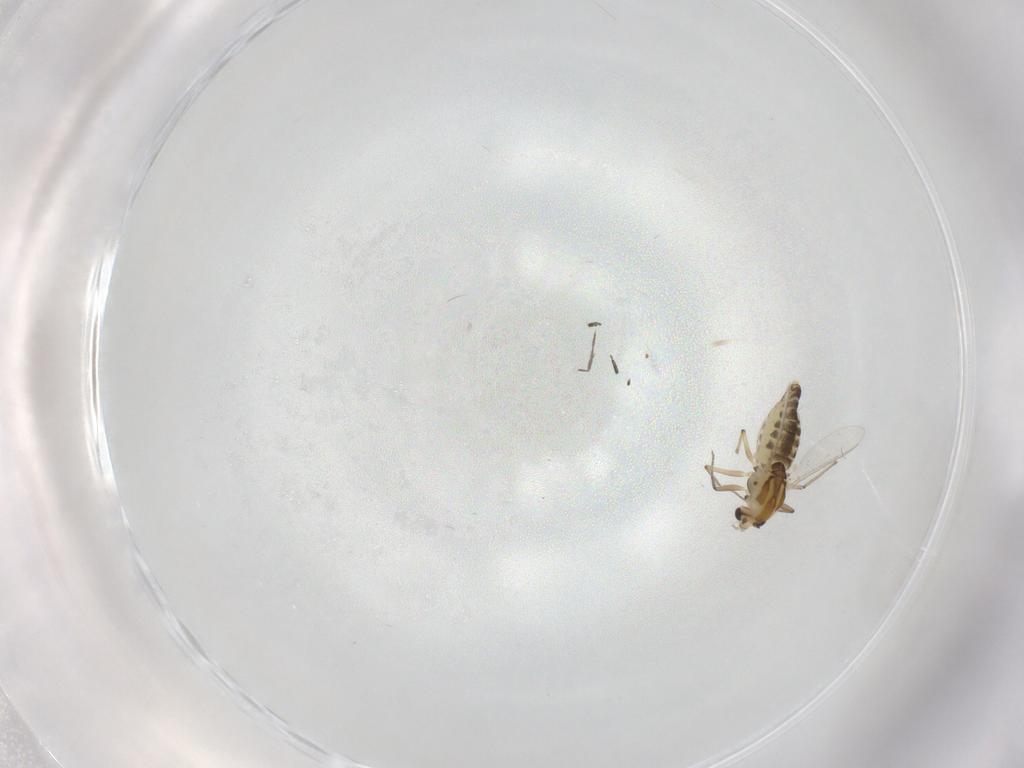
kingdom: Animalia
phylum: Arthropoda
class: Insecta
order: Diptera
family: Chironomidae
